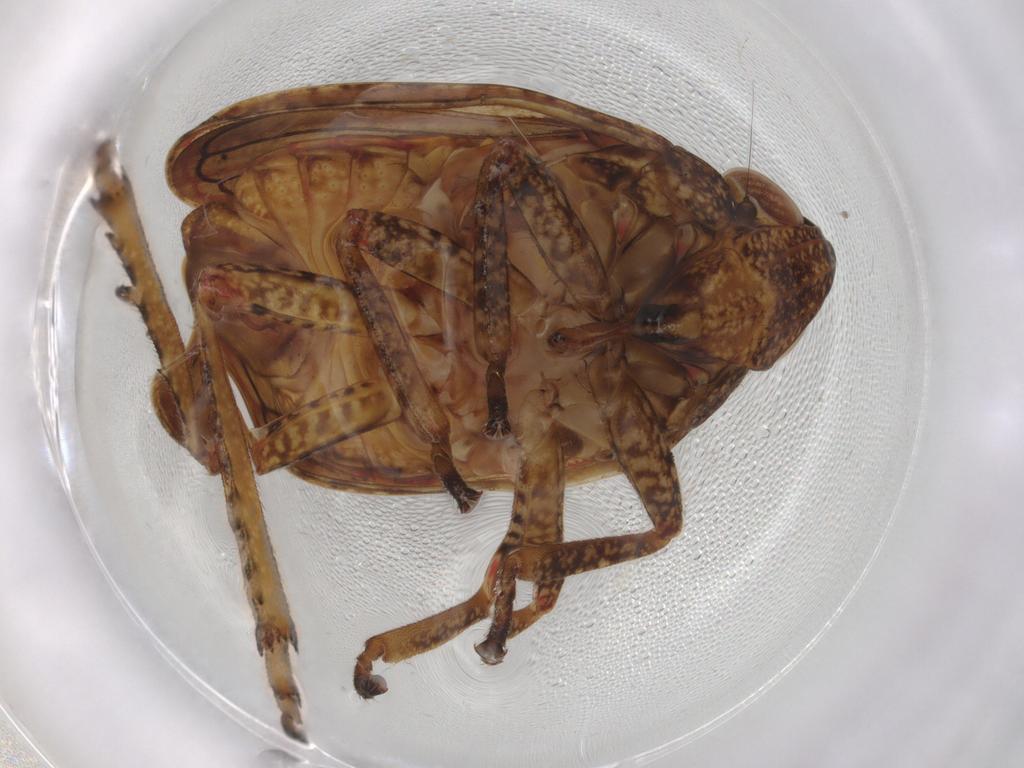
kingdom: Animalia
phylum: Arthropoda
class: Insecta
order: Hemiptera
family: Tropiduchidae
